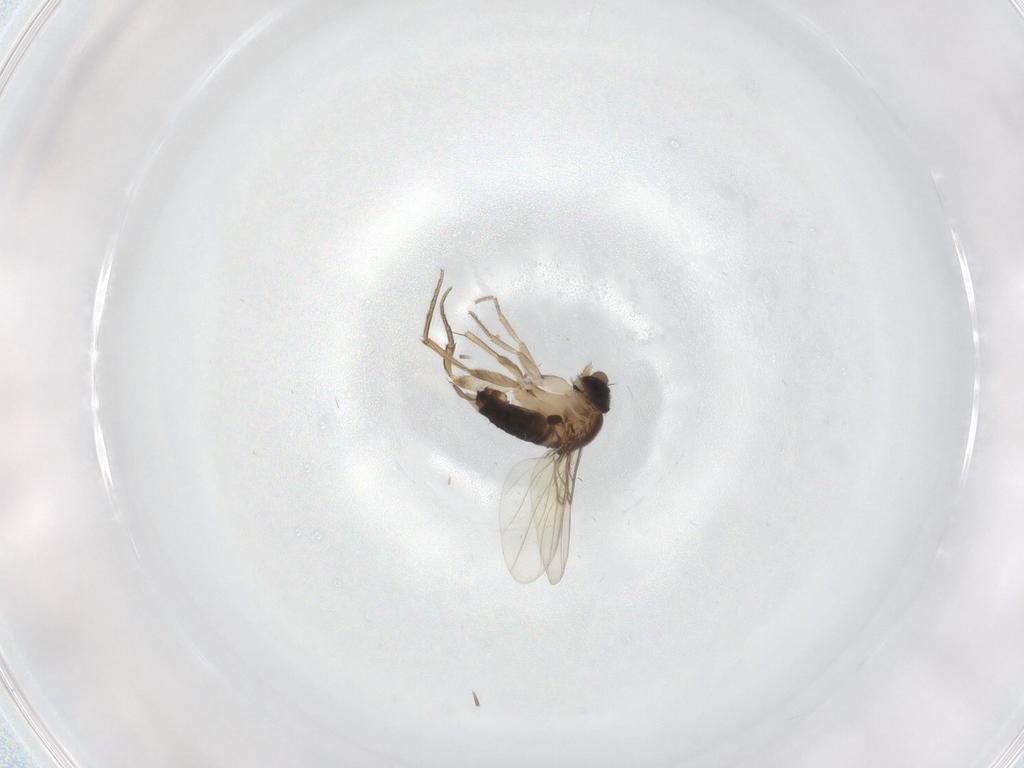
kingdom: Animalia
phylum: Arthropoda
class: Insecta
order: Diptera
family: Phoridae
